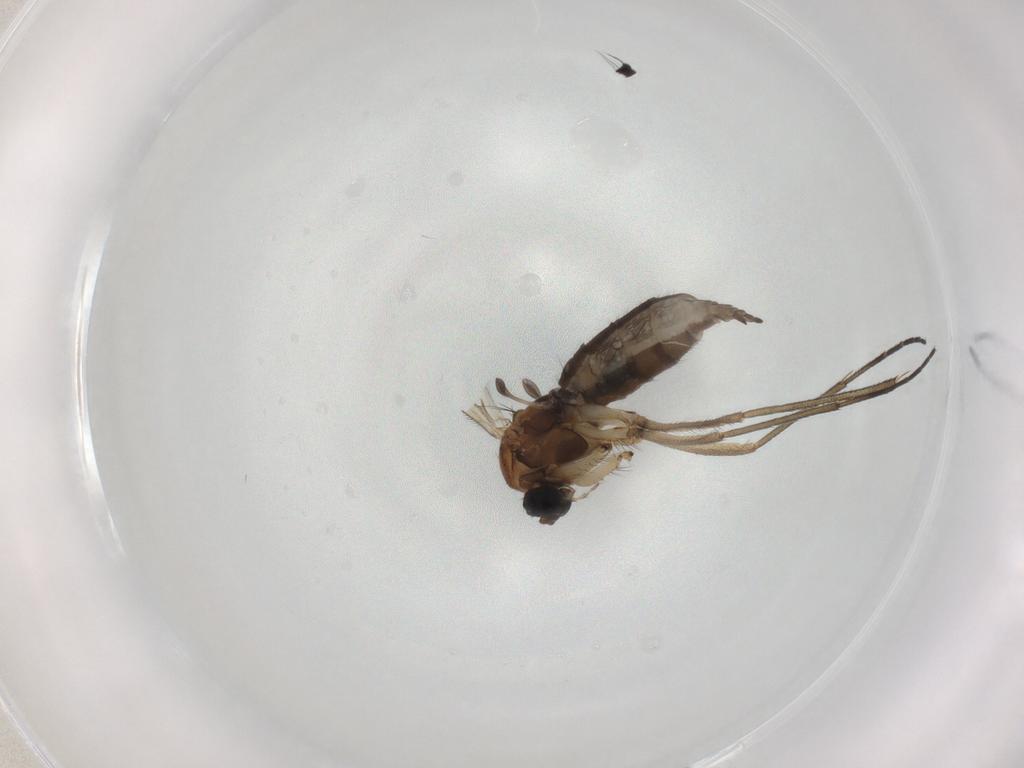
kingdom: Animalia
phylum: Arthropoda
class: Insecta
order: Diptera
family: Sciaridae
